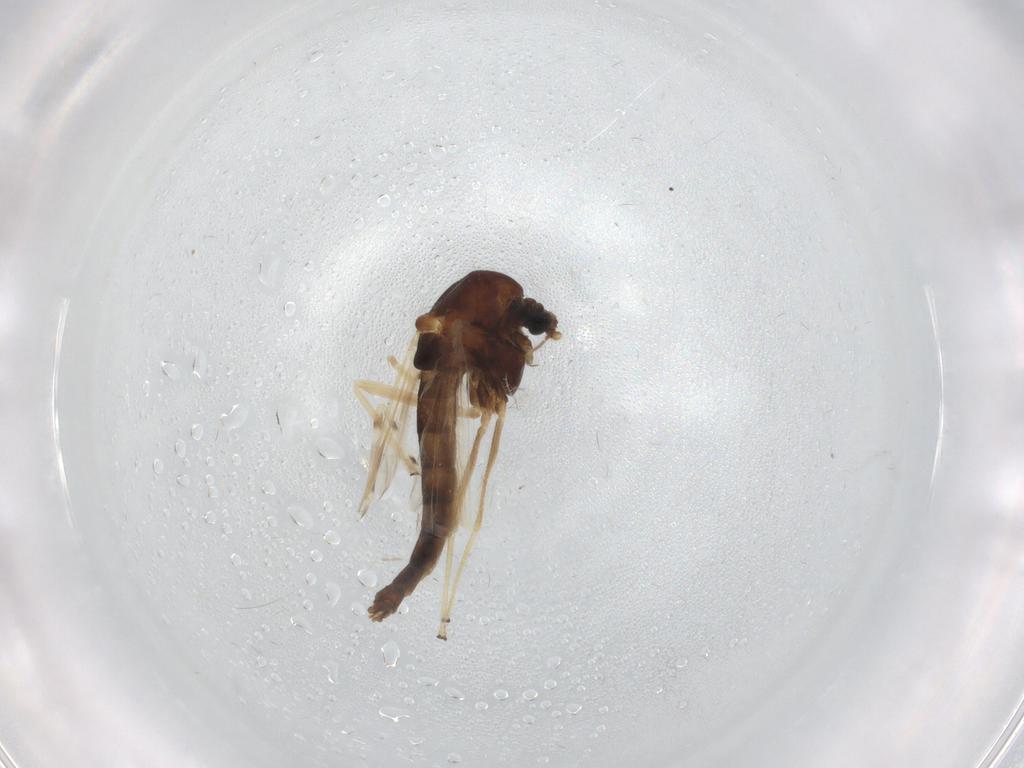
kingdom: Animalia
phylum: Arthropoda
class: Insecta
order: Diptera
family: Chironomidae
